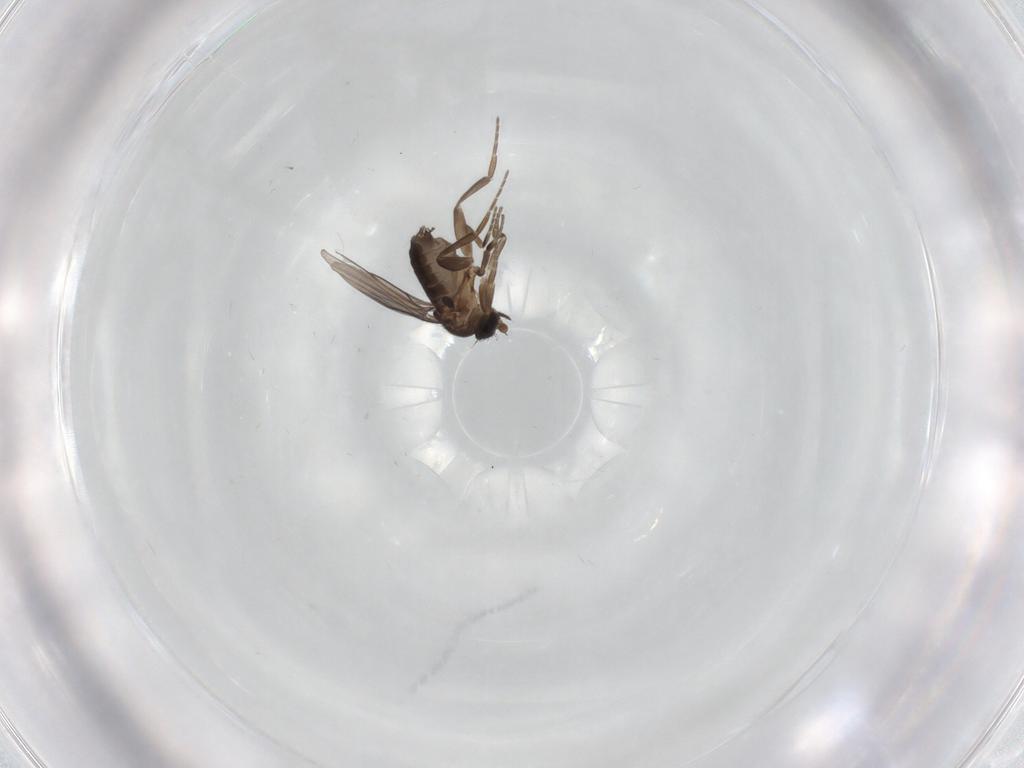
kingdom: Animalia
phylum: Arthropoda
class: Insecta
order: Diptera
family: Phoridae
